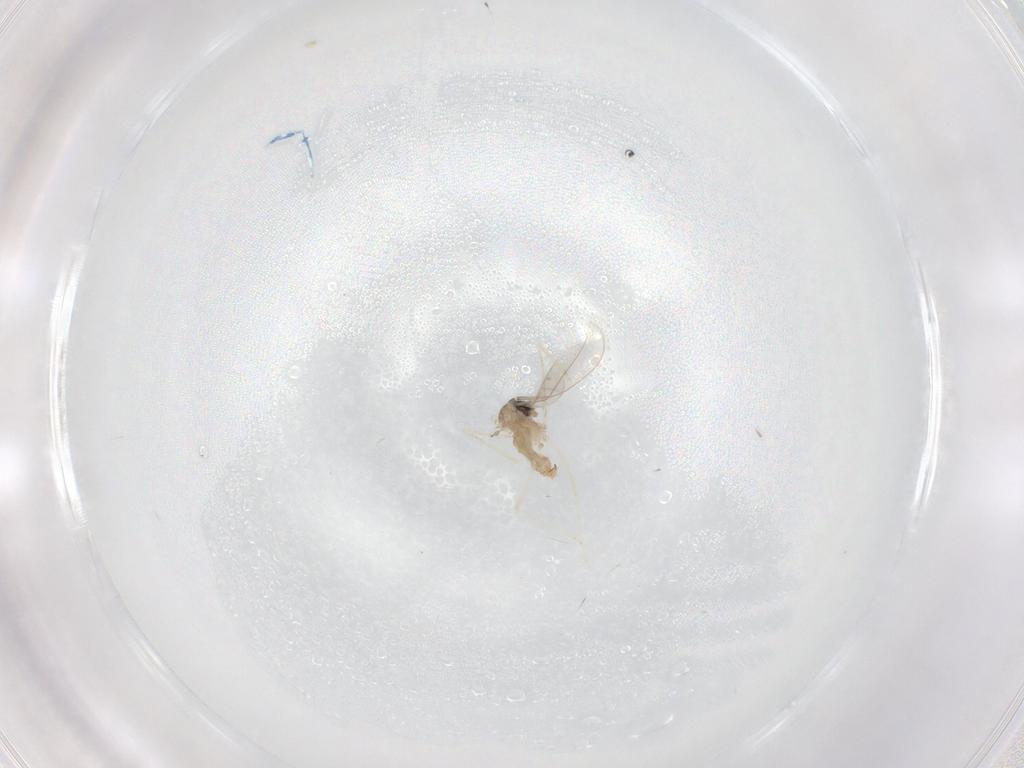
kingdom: Animalia
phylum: Arthropoda
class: Insecta
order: Diptera
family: Cecidomyiidae
